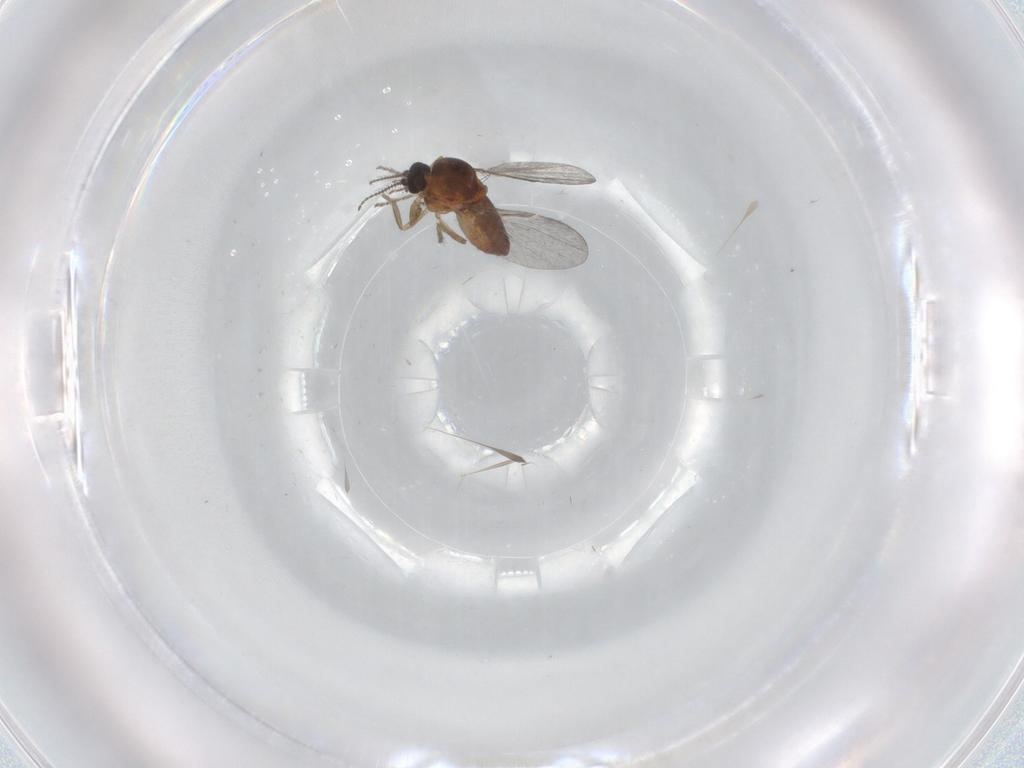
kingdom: Animalia
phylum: Arthropoda
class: Insecta
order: Diptera
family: Ceratopogonidae
